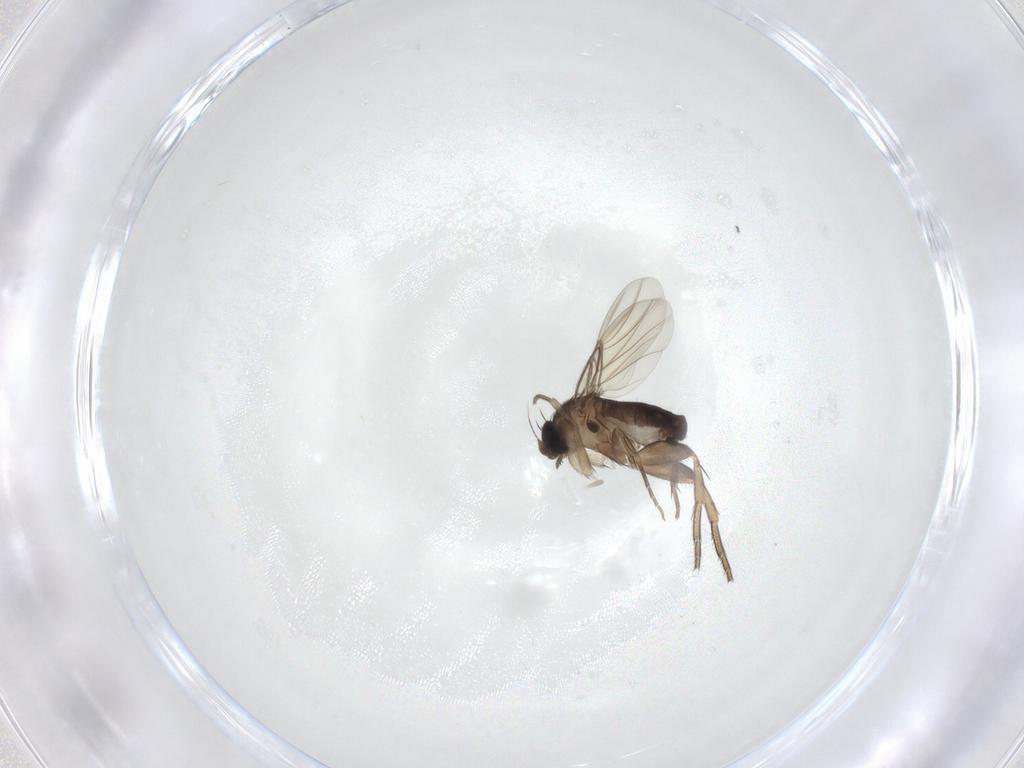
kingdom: Animalia
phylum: Arthropoda
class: Insecta
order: Diptera
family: Phoridae
